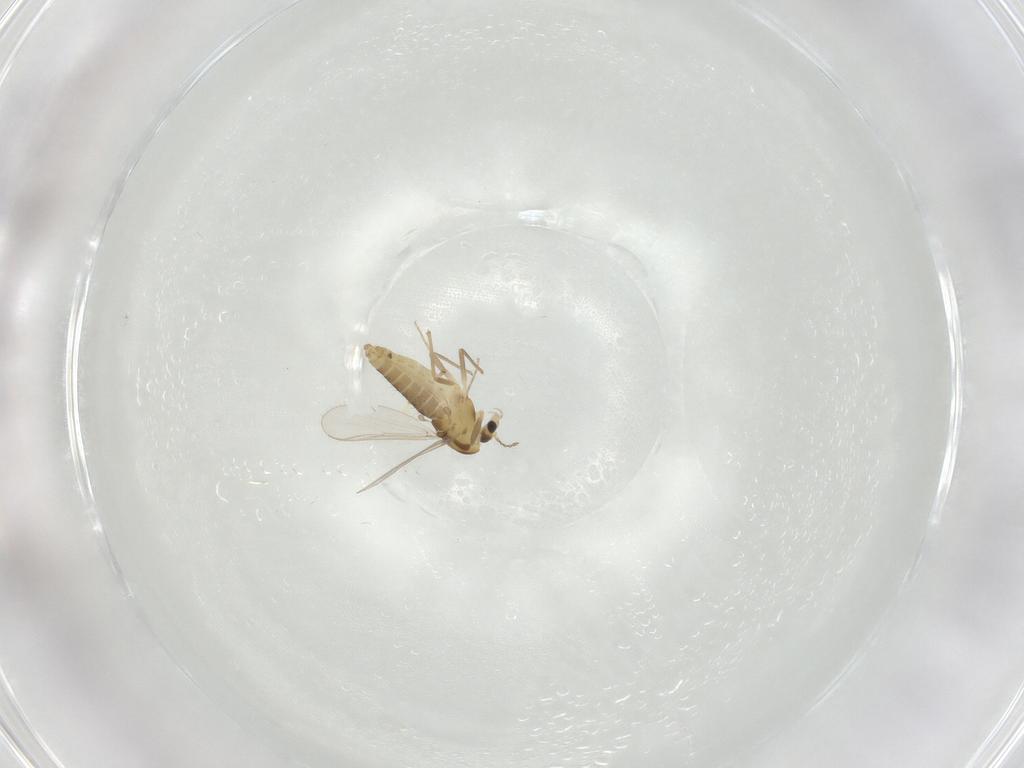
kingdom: Animalia
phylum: Arthropoda
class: Insecta
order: Diptera
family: Chironomidae
